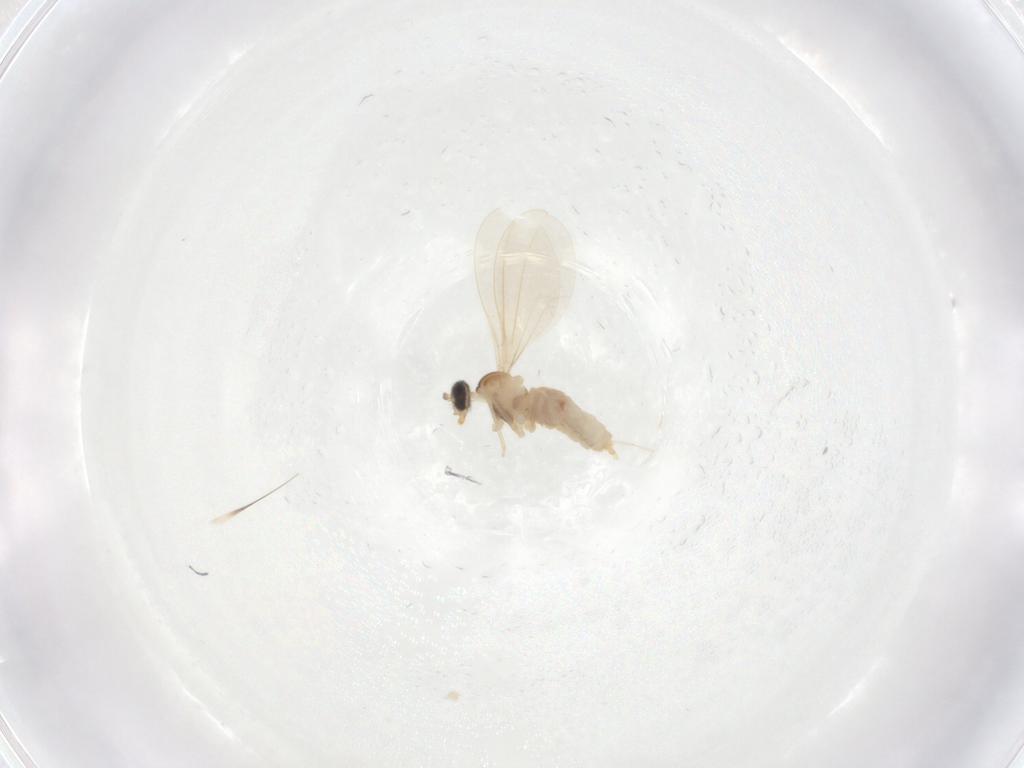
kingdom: Animalia
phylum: Arthropoda
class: Insecta
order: Diptera
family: Cecidomyiidae
